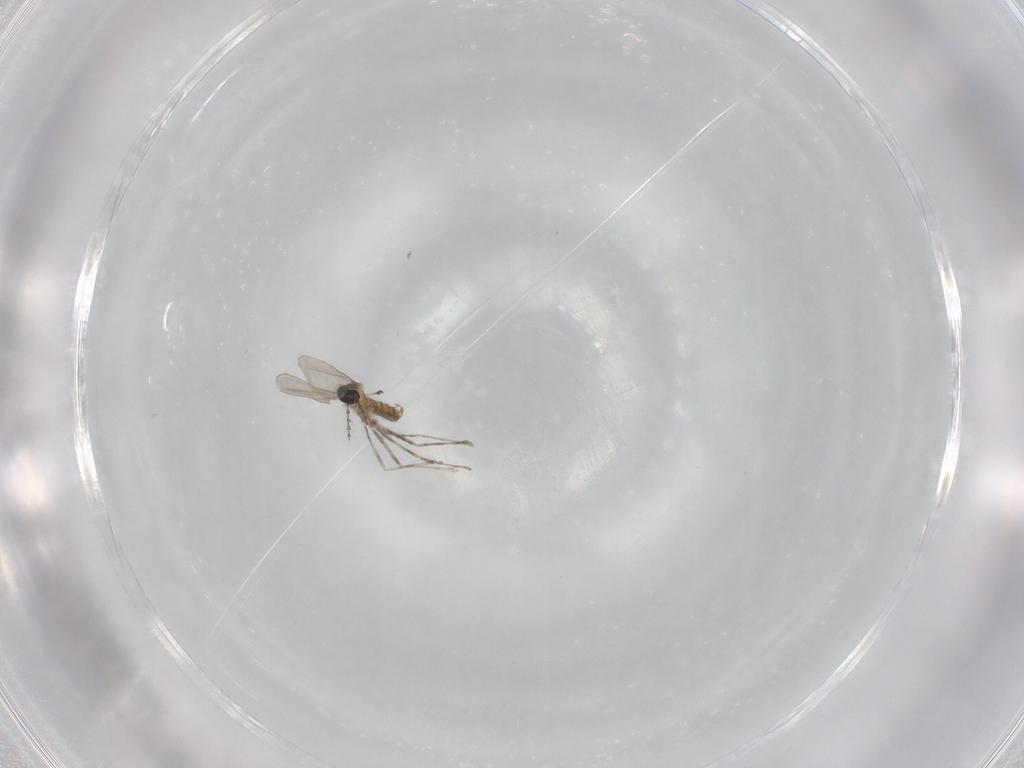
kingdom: Animalia
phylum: Arthropoda
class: Insecta
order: Diptera
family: Cecidomyiidae
